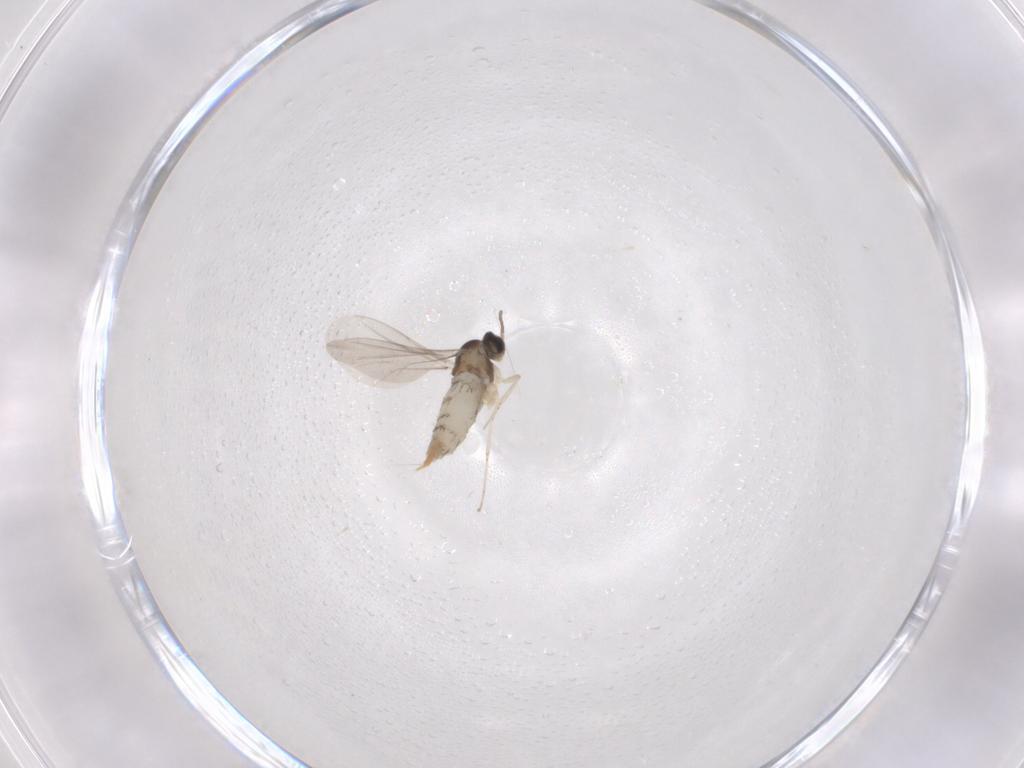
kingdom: Animalia
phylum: Arthropoda
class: Insecta
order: Diptera
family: Cecidomyiidae
